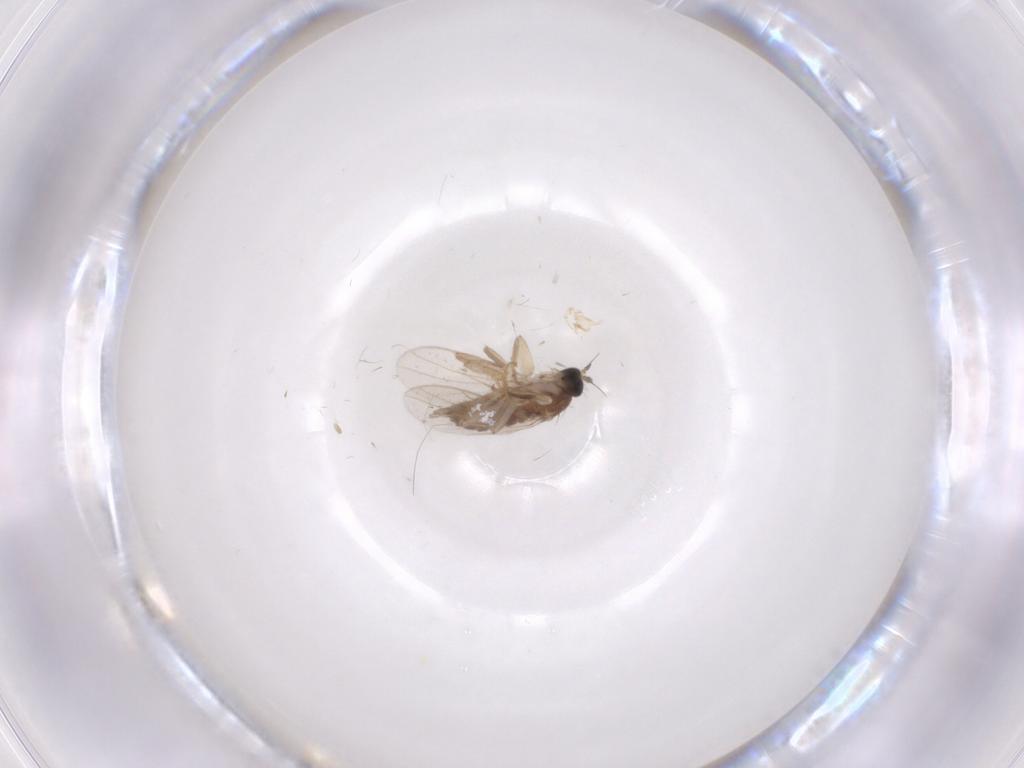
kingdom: Animalia
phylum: Arthropoda
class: Insecta
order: Diptera
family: Hybotidae
